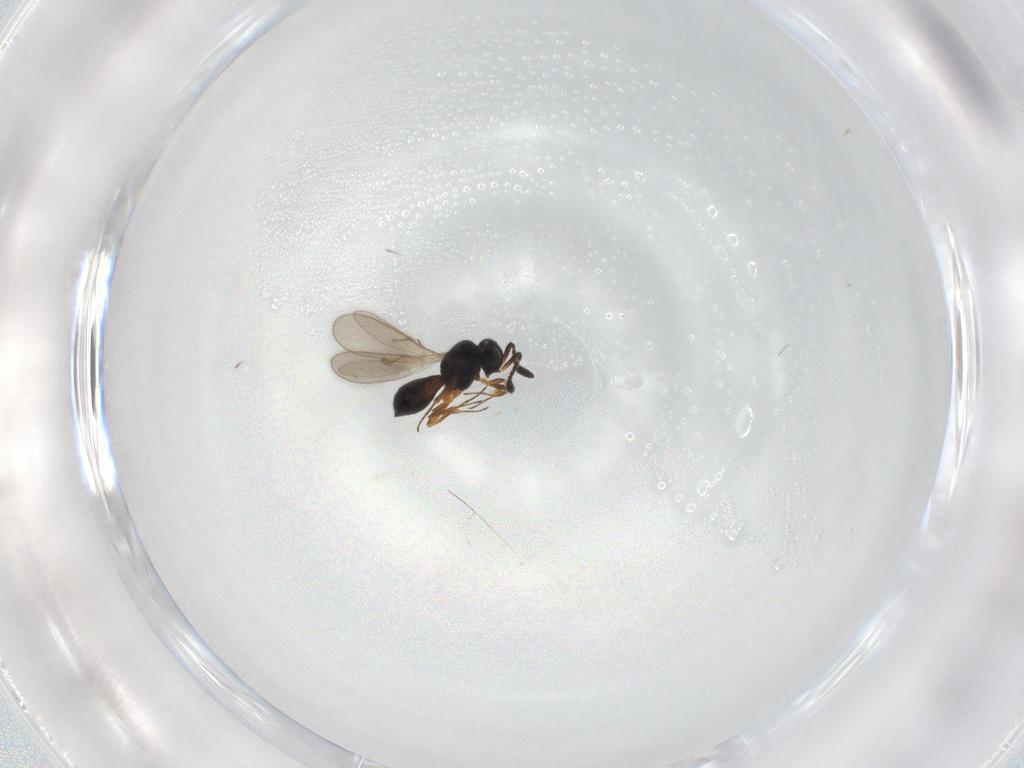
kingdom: Animalia
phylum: Arthropoda
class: Insecta
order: Hymenoptera
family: Scelionidae
